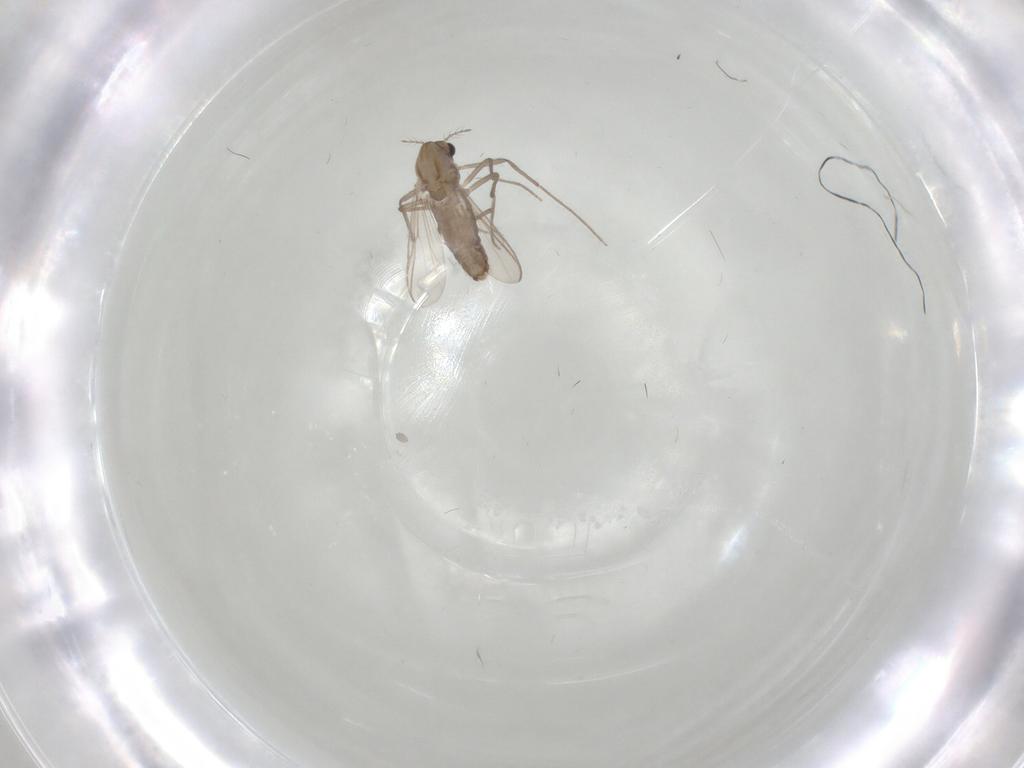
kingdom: Animalia
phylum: Arthropoda
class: Insecta
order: Diptera
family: Chironomidae
